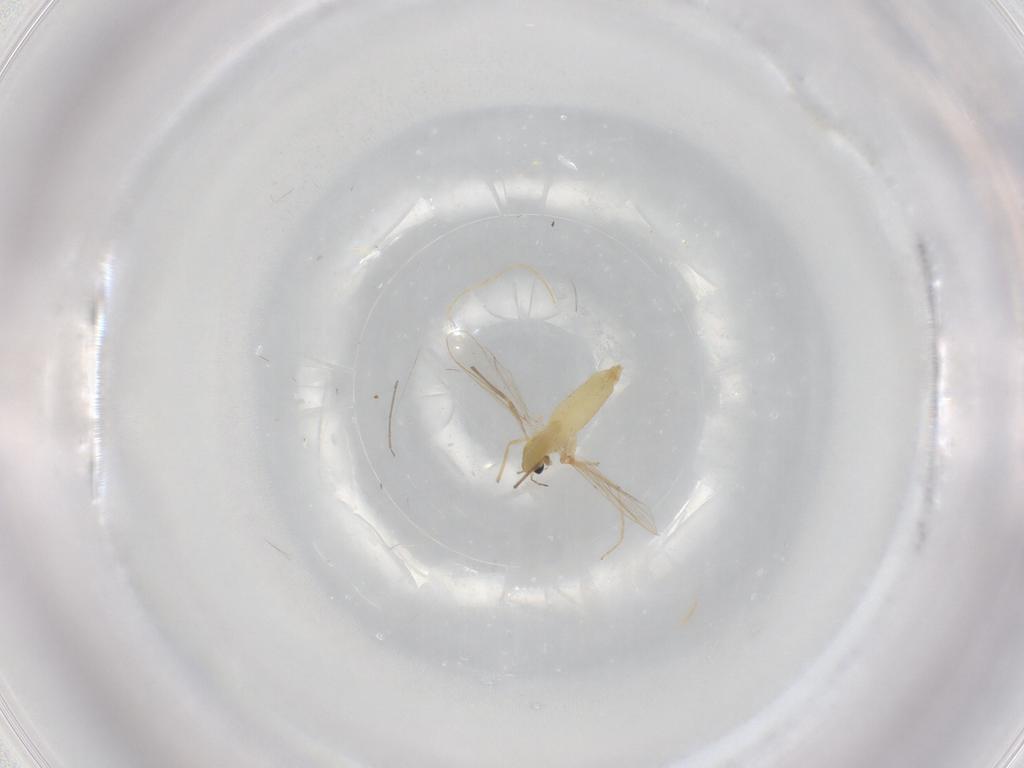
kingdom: Animalia
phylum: Arthropoda
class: Insecta
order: Diptera
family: Chironomidae
